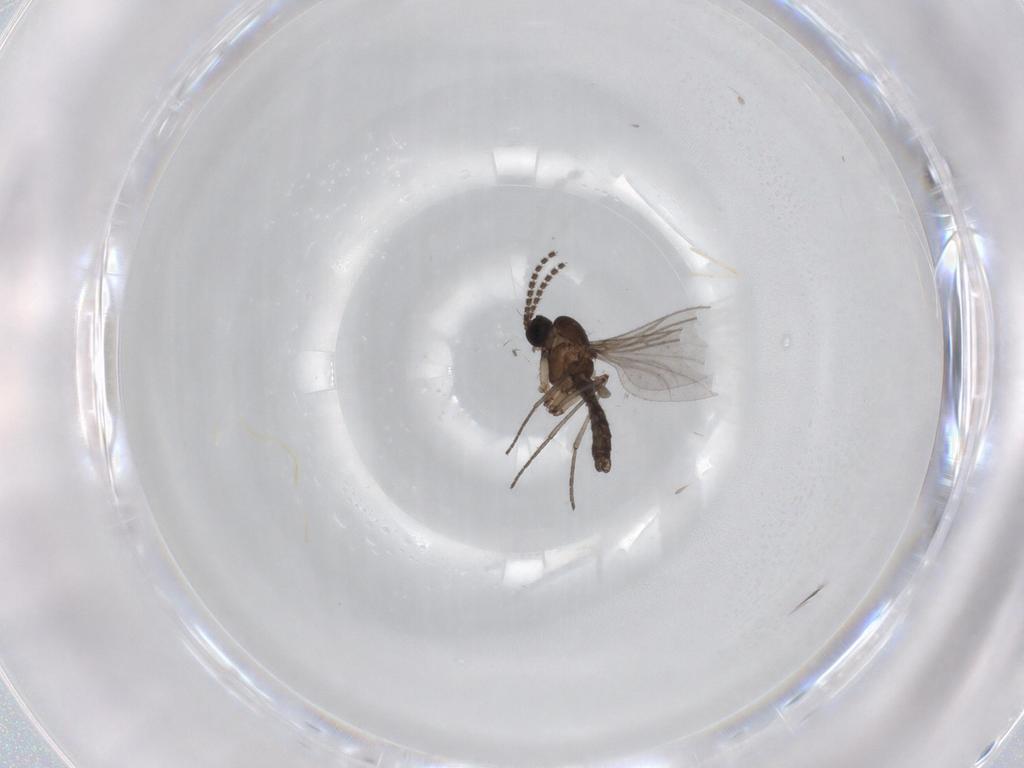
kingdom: Animalia
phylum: Arthropoda
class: Insecta
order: Diptera
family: Cecidomyiidae
